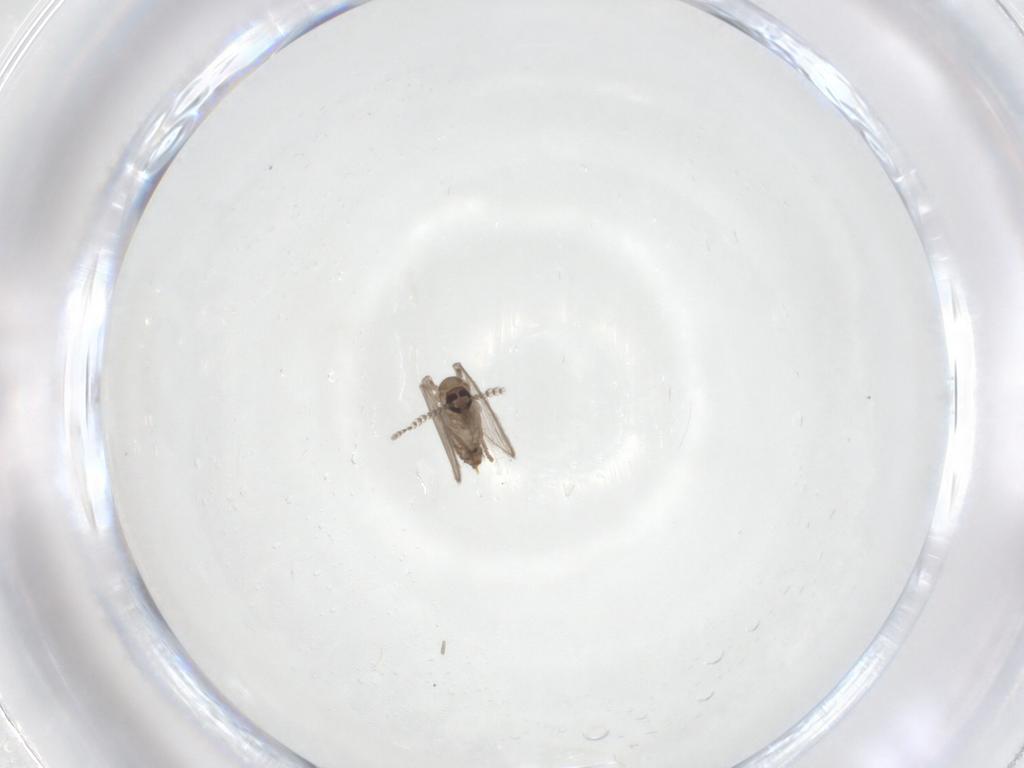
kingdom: Animalia
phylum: Arthropoda
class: Insecta
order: Diptera
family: Psychodidae
